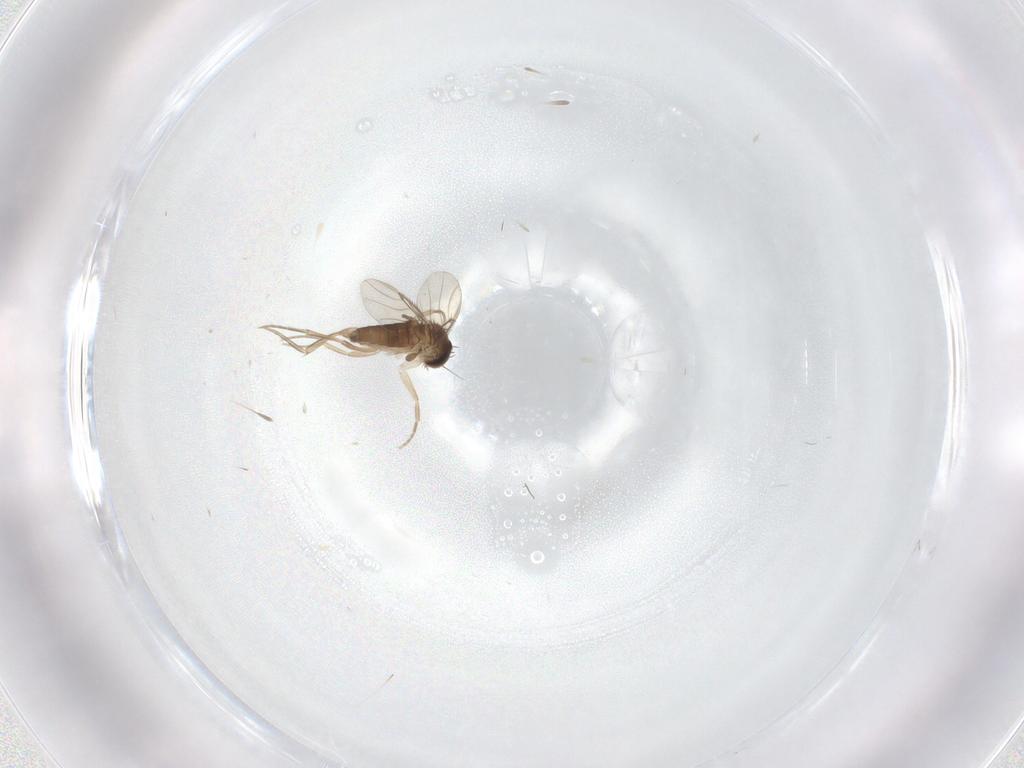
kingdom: Animalia
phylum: Arthropoda
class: Insecta
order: Diptera
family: Phoridae
